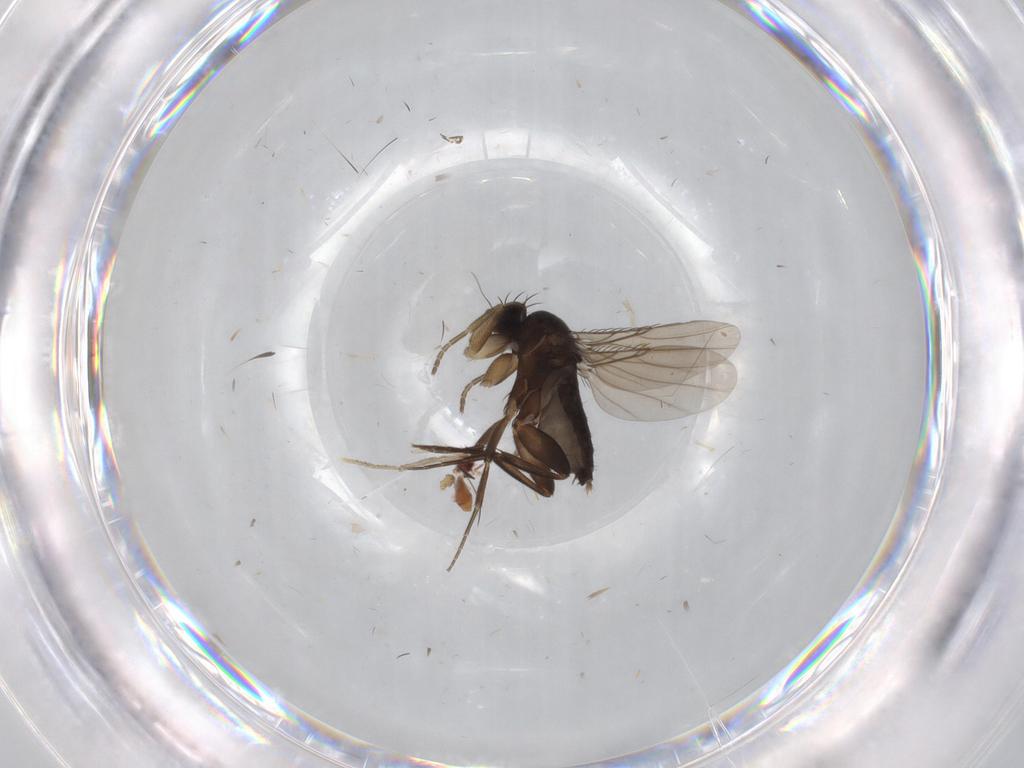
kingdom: Animalia
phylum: Arthropoda
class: Insecta
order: Diptera
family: Phoridae
